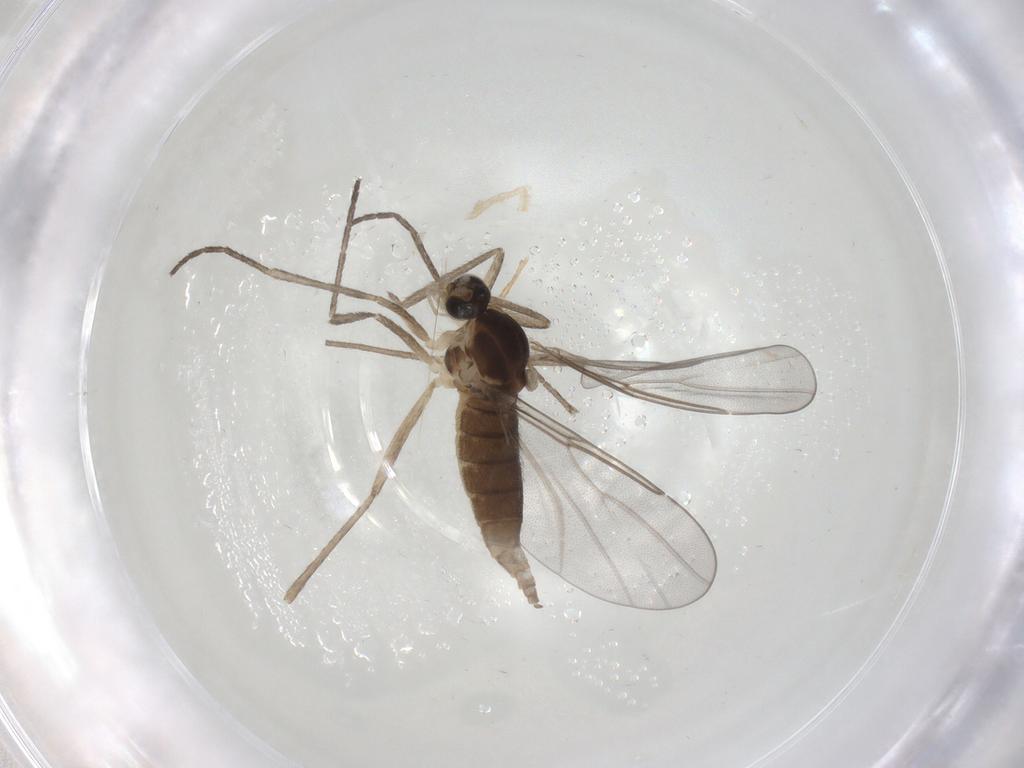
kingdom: Animalia
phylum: Arthropoda
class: Insecta
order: Diptera
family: Cecidomyiidae
